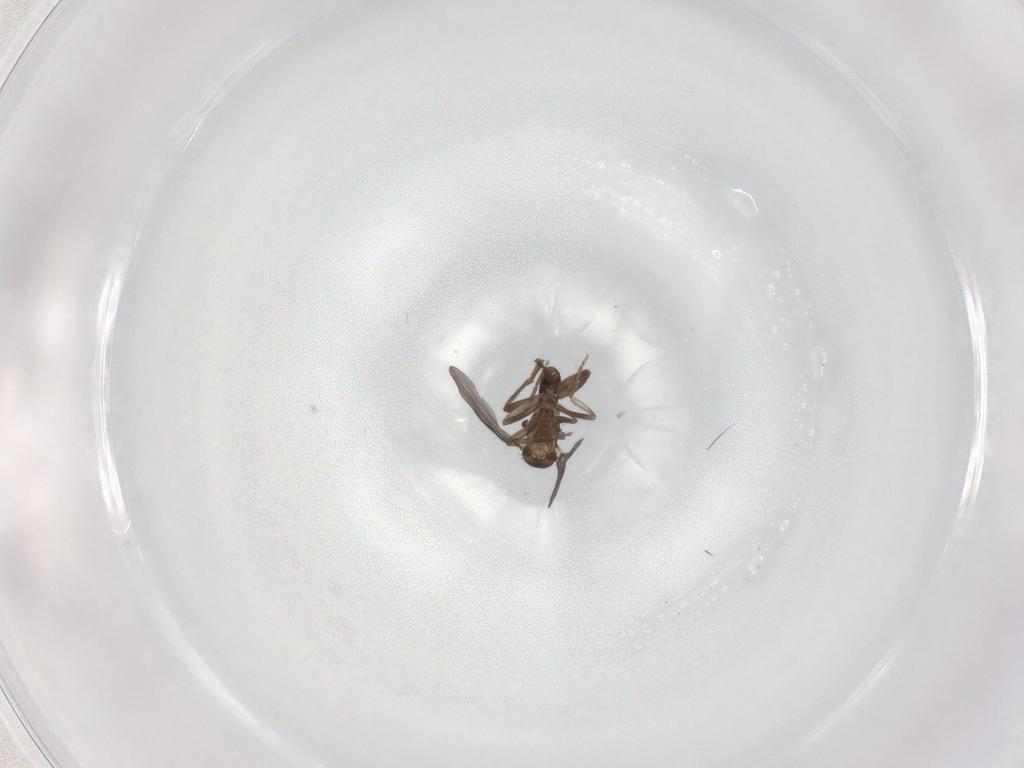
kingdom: Animalia
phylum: Arthropoda
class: Insecta
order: Diptera
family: Phoridae
